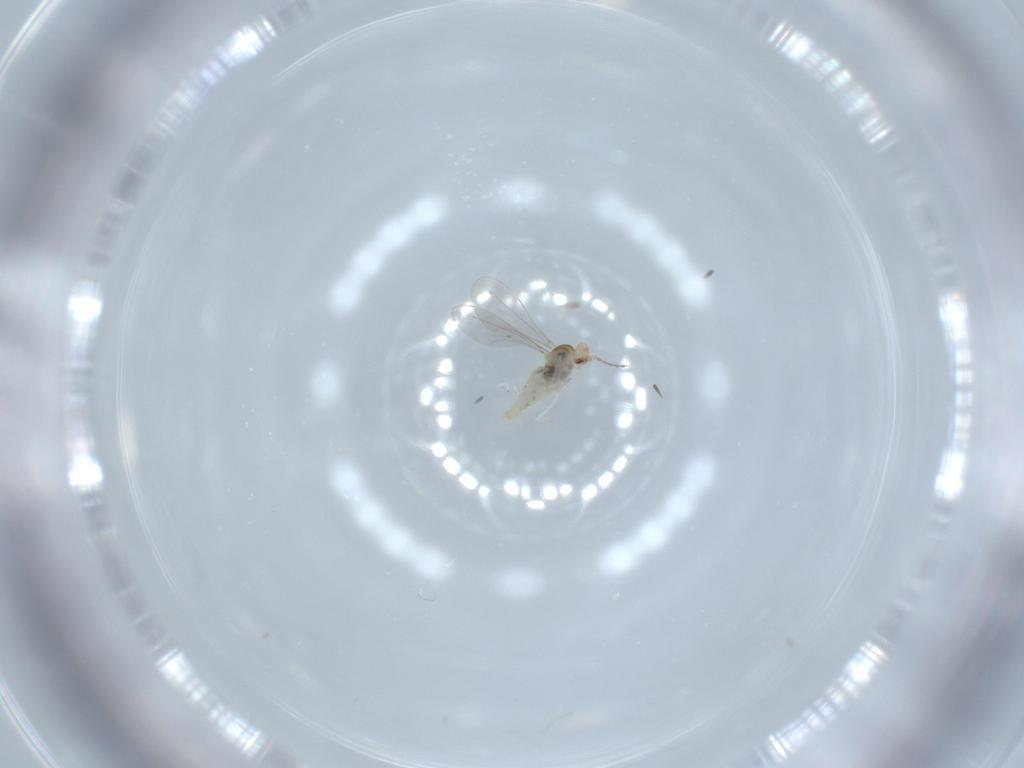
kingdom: Animalia
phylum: Arthropoda
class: Insecta
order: Diptera
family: Cecidomyiidae
